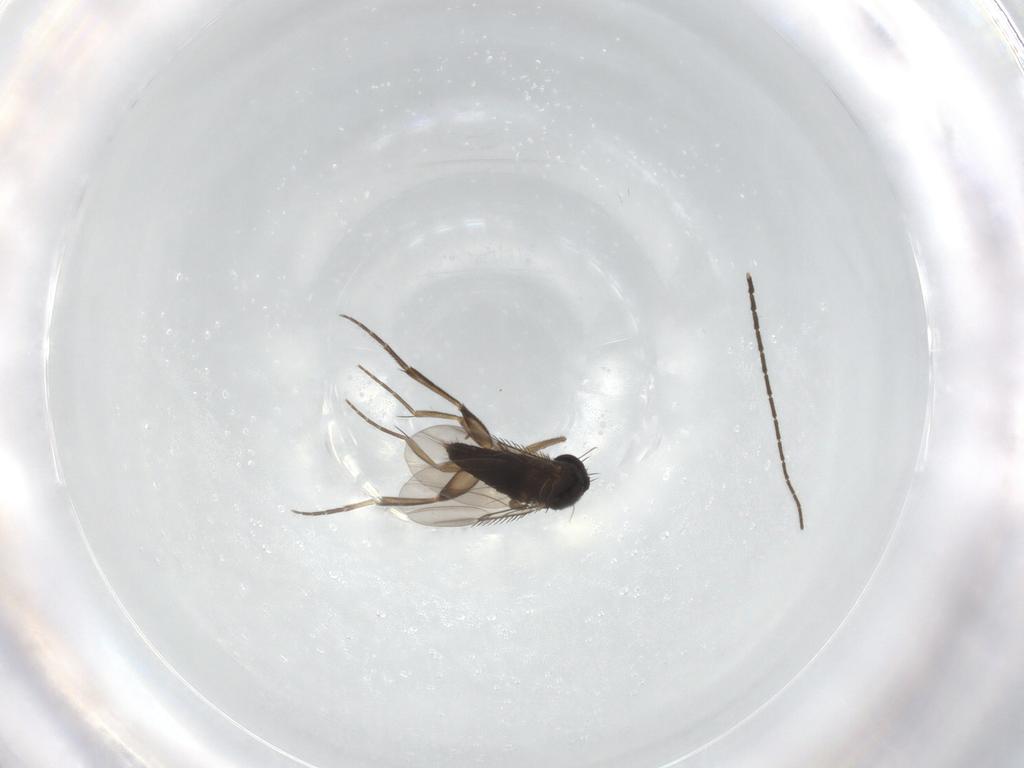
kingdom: Animalia
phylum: Arthropoda
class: Insecta
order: Diptera
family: Phoridae
